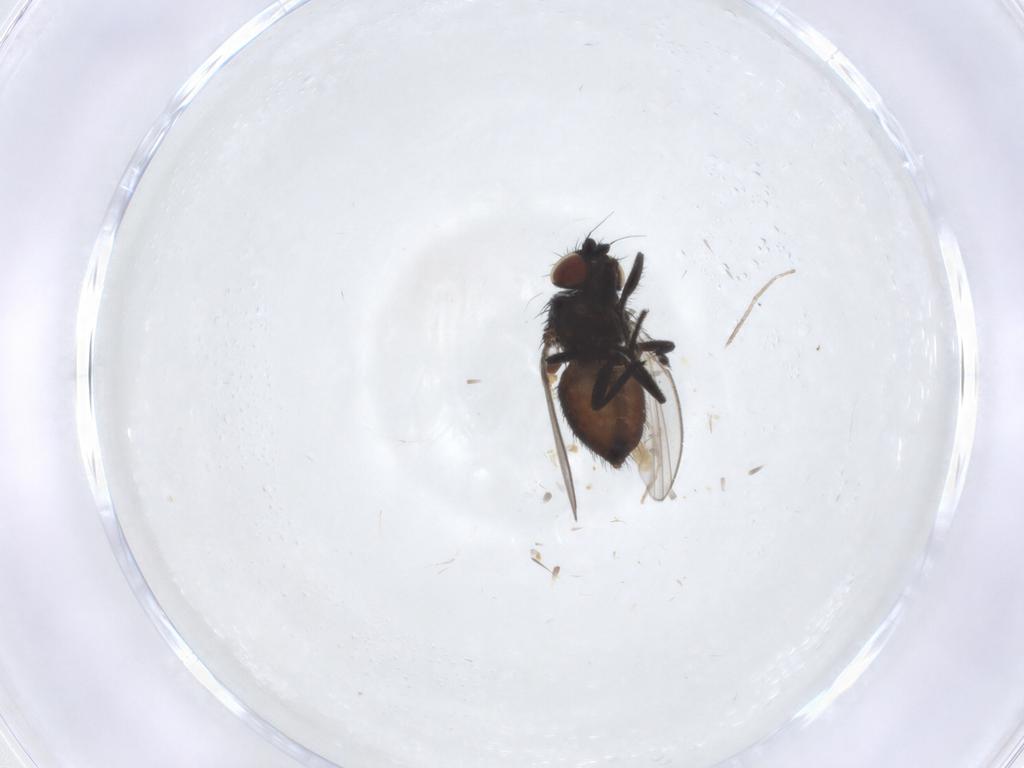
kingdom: Animalia
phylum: Arthropoda
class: Insecta
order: Diptera
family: Milichiidae
